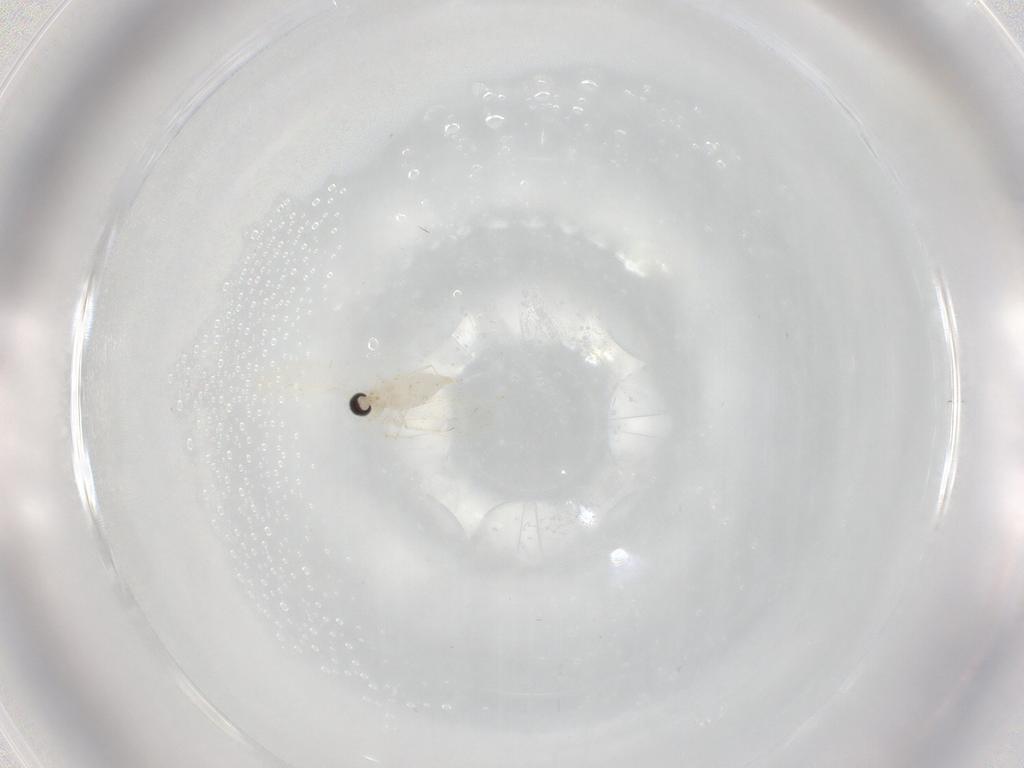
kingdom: Animalia
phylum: Arthropoda
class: Insecta
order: Diptera
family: Cecidomyiidae
